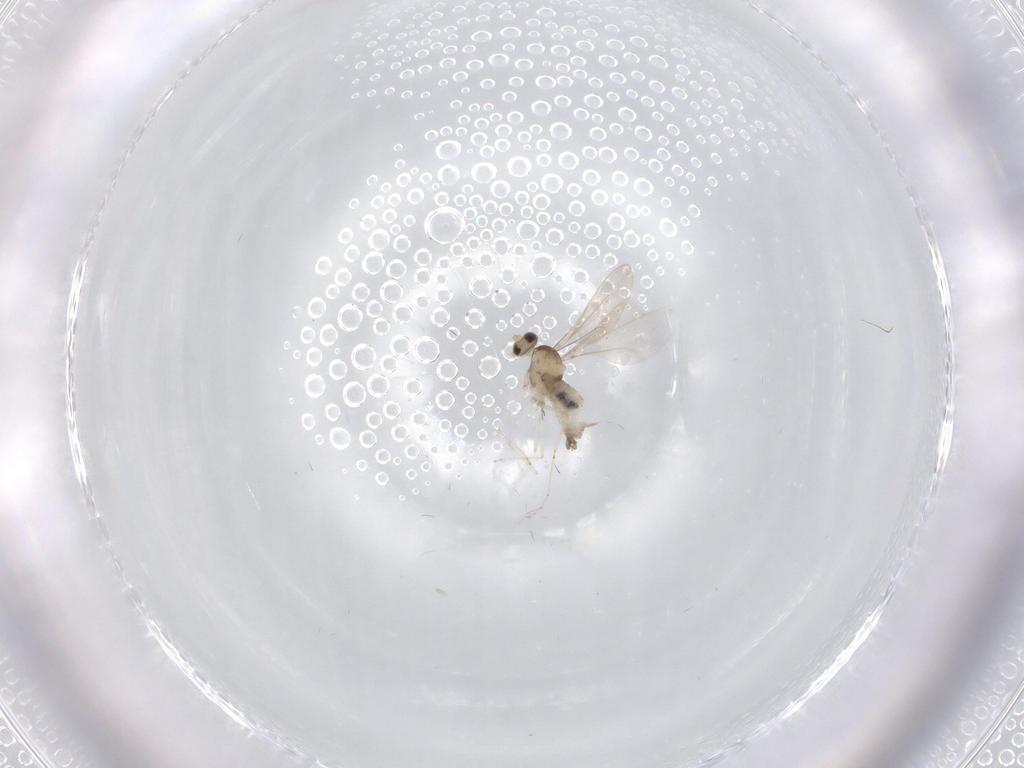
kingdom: Animalia
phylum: Arthropoda
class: Insecta
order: Diptera
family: Cecidomyiidae
